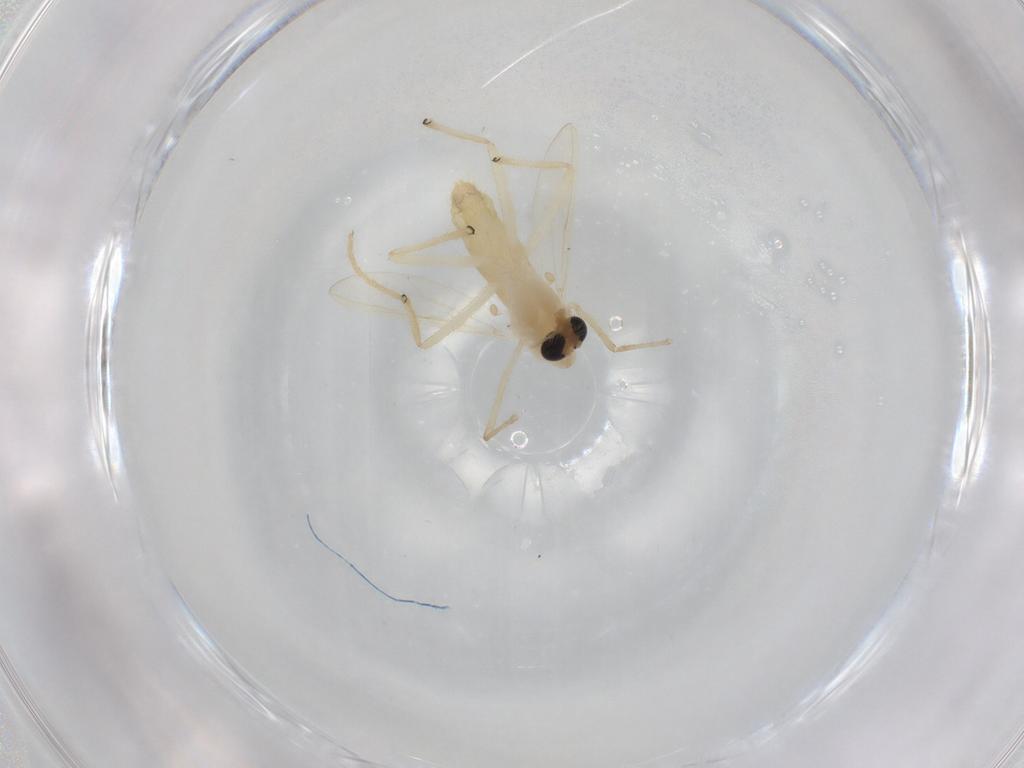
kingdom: Animalia
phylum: Arthropoda
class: Insecta
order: Diptera
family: Chironomidae
